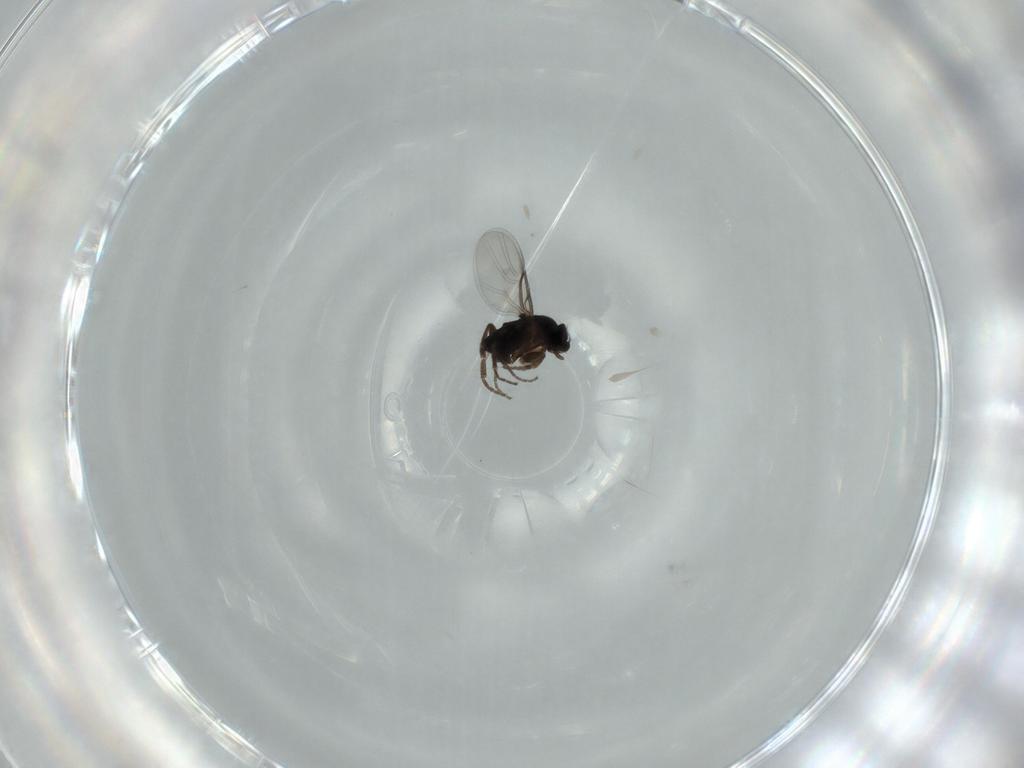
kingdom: Animalia
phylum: Arthropoda
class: Insecta
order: Diptera
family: Phoridae
